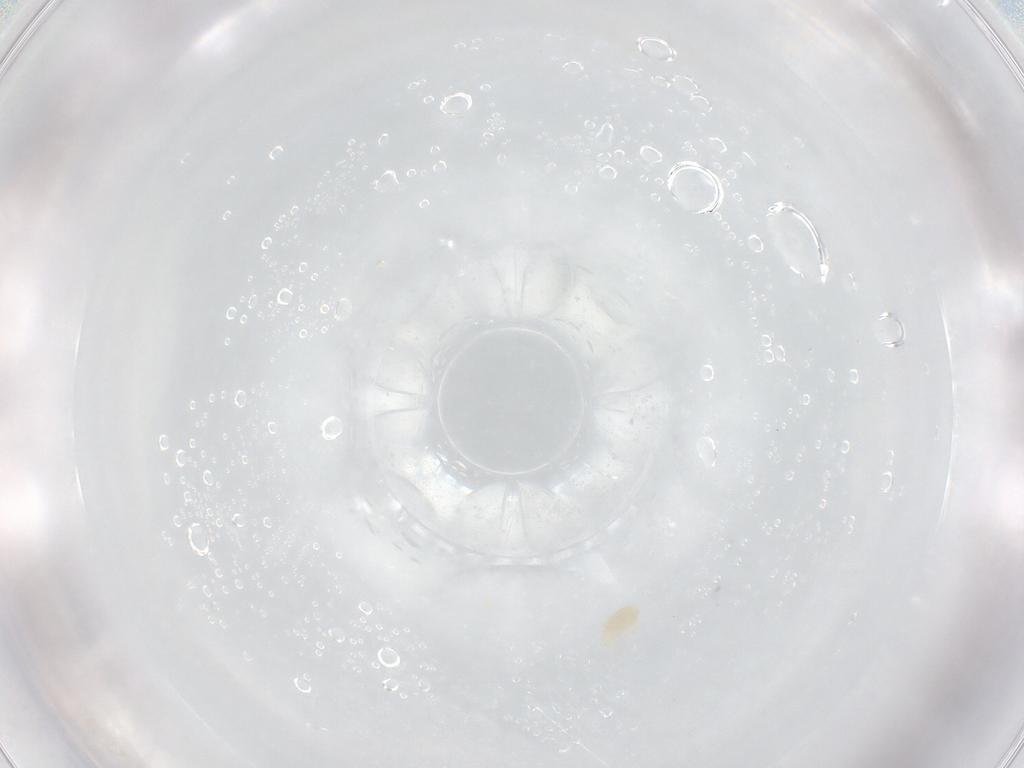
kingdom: Animalia
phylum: Arthropoda
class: Arachnida
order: Trombidiformes
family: Eupodidae
